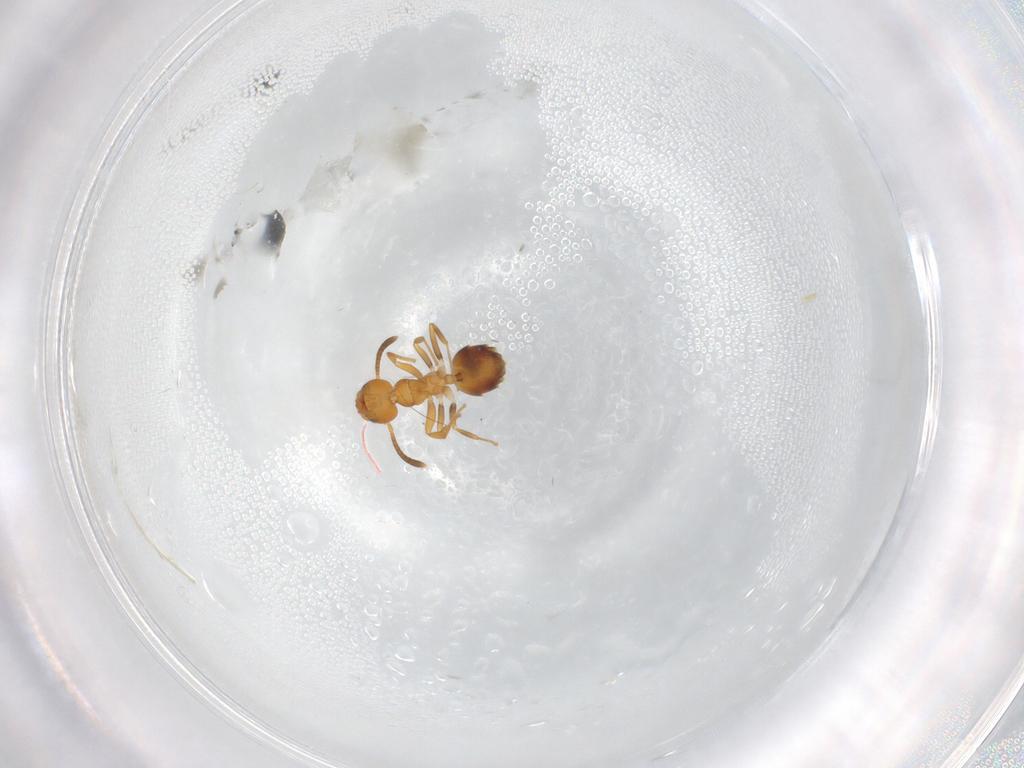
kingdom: Animalia
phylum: Arthropoda
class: Insecta
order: Hymenoptera
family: Formicidae
